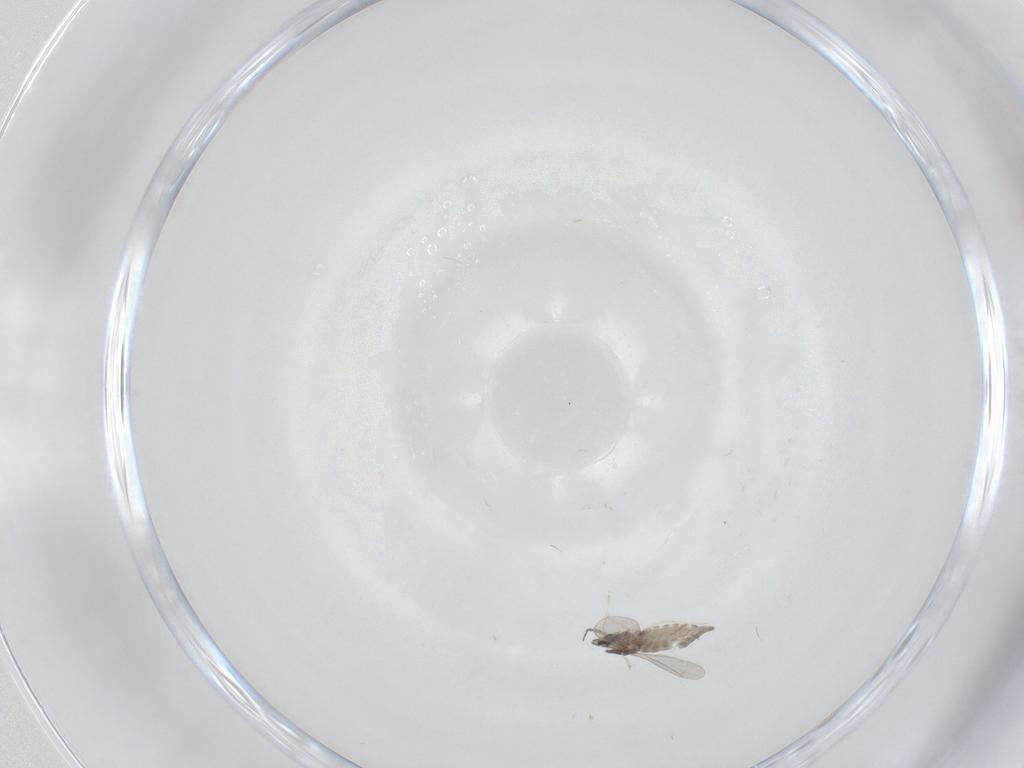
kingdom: Animalia
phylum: Arthropoda
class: Insecta
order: Diptera
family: Cecidomyiidae
